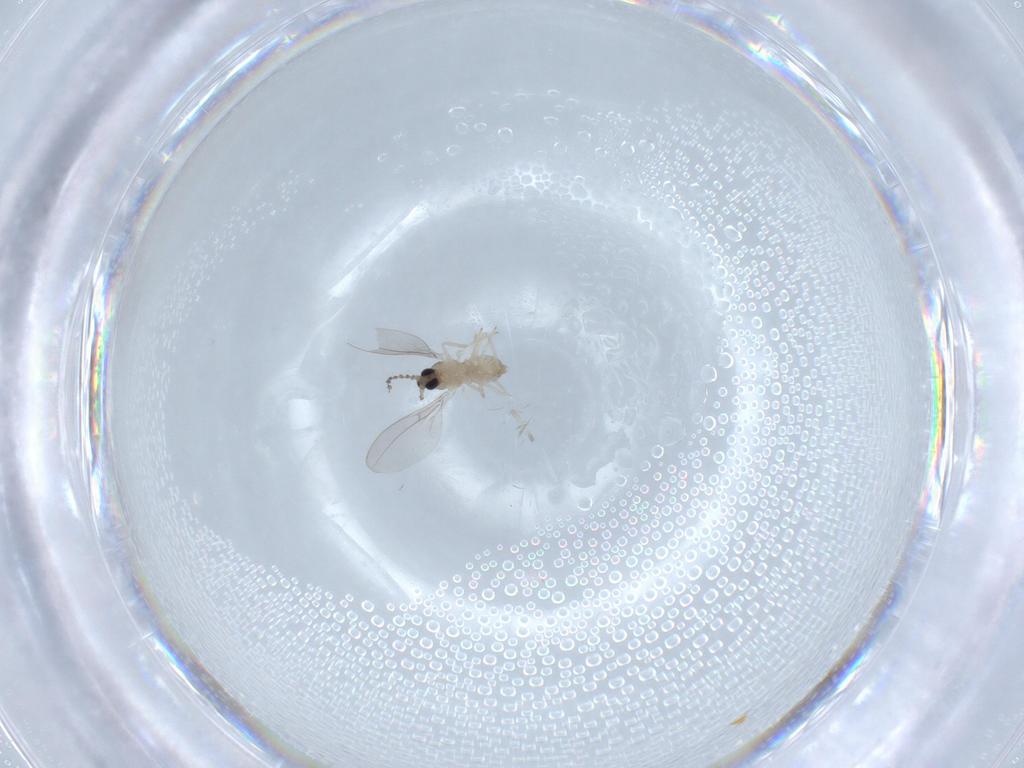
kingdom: Animalia
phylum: Arthropoda
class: Insecta
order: Diptera
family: Cecidomyiidae
